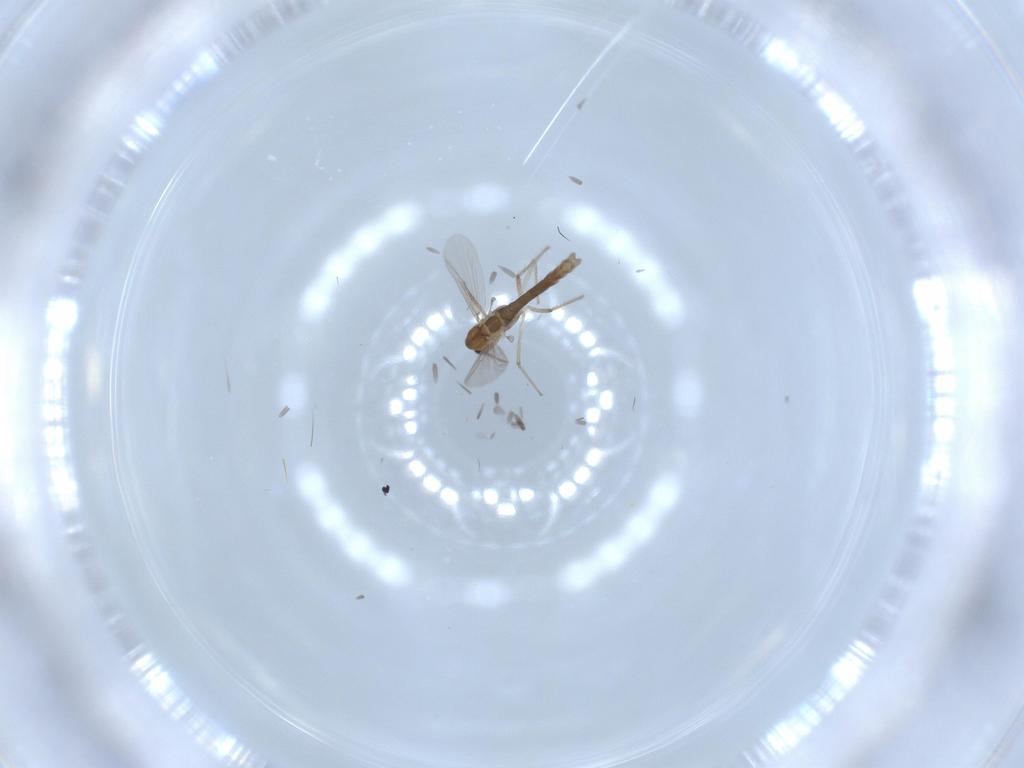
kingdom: Animalia
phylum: Arthropoda
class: Insecta
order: Diptera
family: Chironomidae
